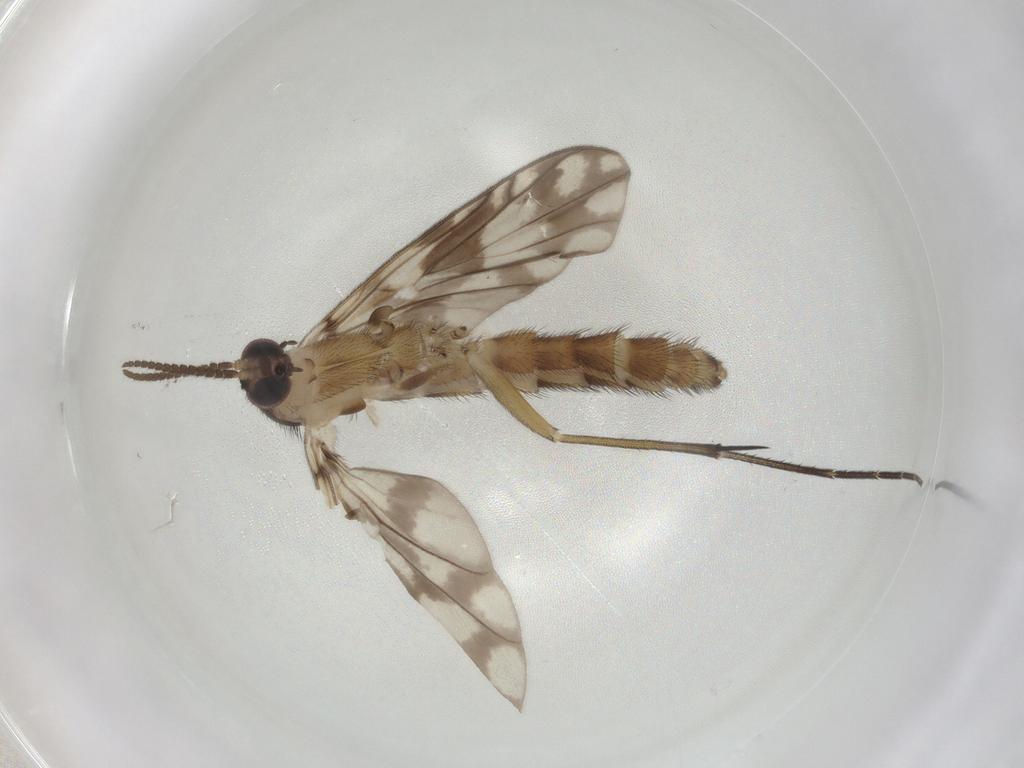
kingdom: Animalia
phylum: Arthropoda
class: Insecta
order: Diptera
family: Keroplatidae
